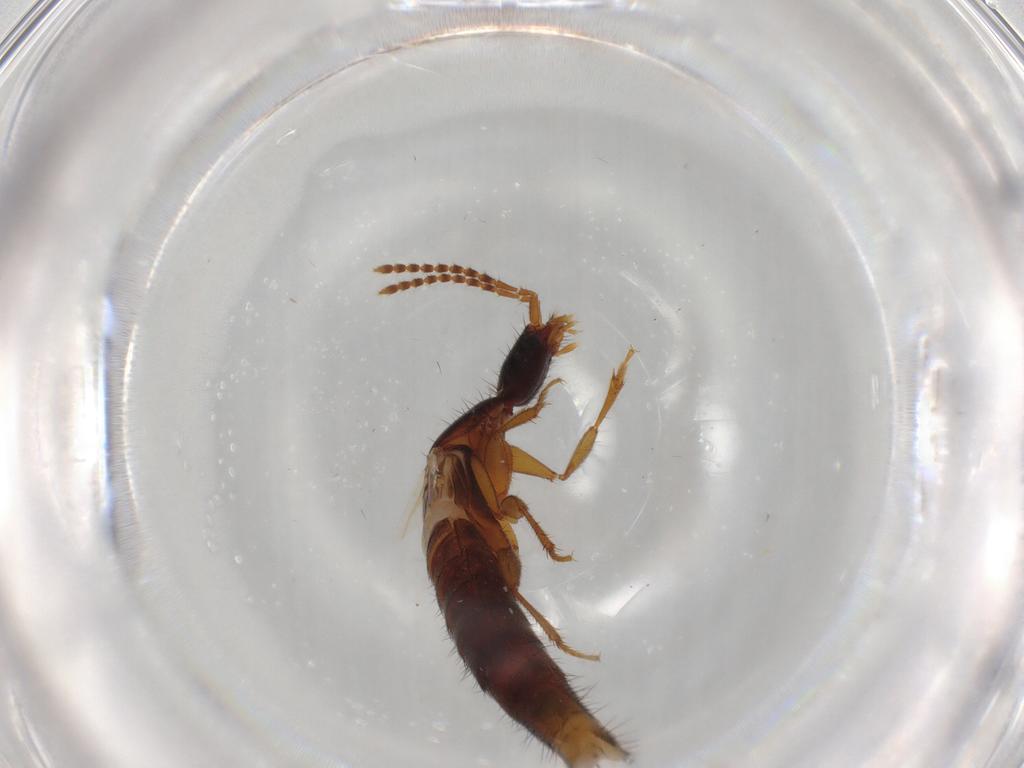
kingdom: Animalia
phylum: Arthropoda
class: Insecta
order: Coleoptera
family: Staphylinidae
